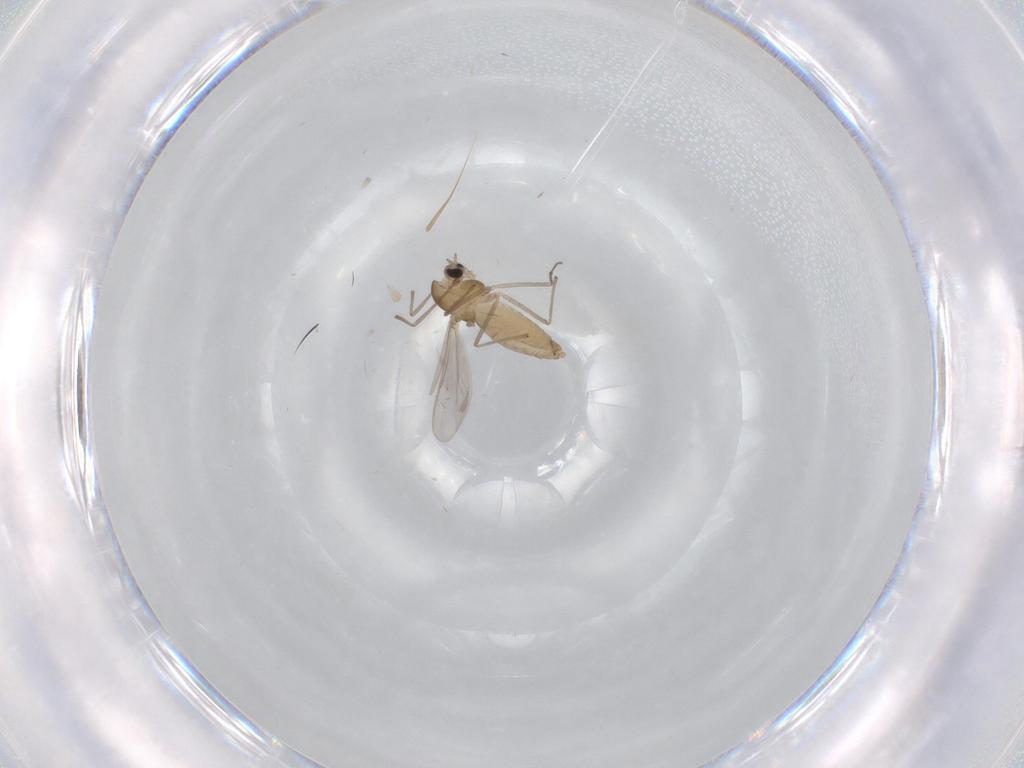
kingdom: Animalia
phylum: Arthropoda
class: Insecta
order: Diptera
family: Chironomidae
